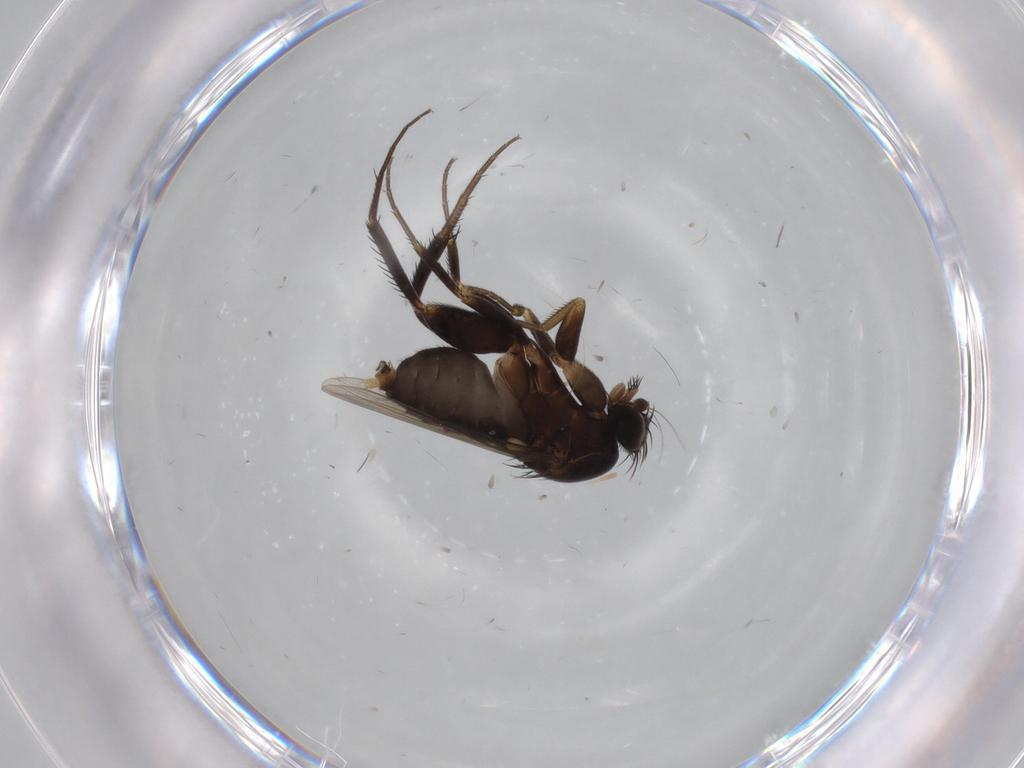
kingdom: Animalia
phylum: Arthropoda
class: Insecta
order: Diptera
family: Phoridae
